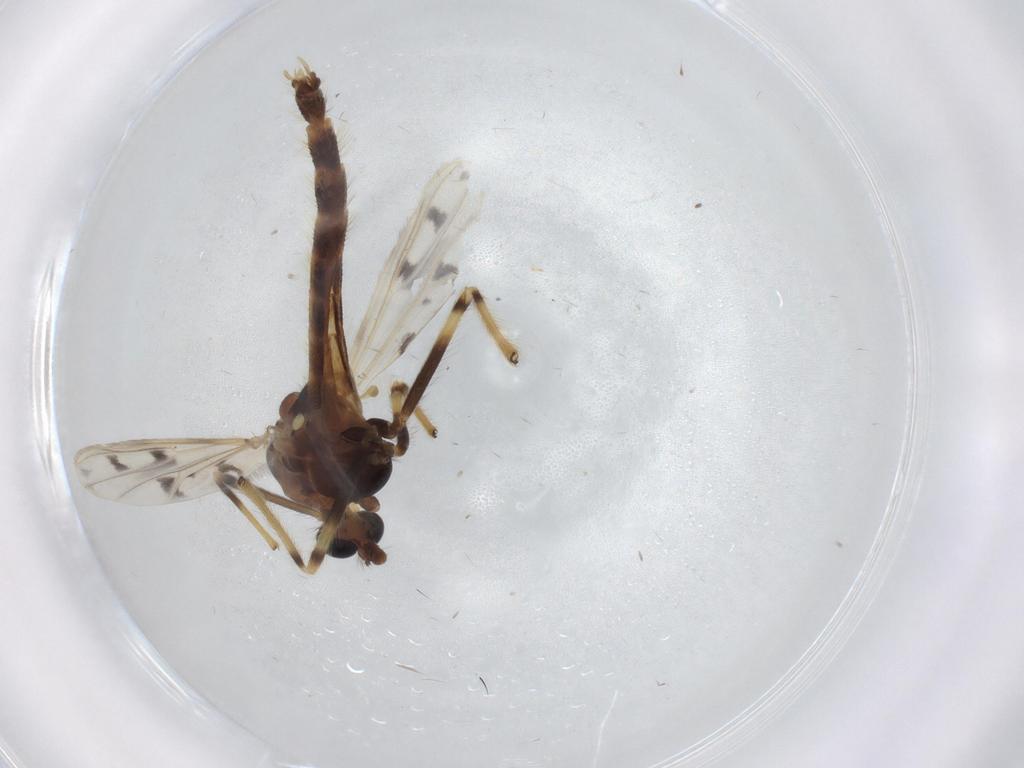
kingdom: Animalia
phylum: Arthropoda
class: Insecta
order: Diptera
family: Chironomidae
